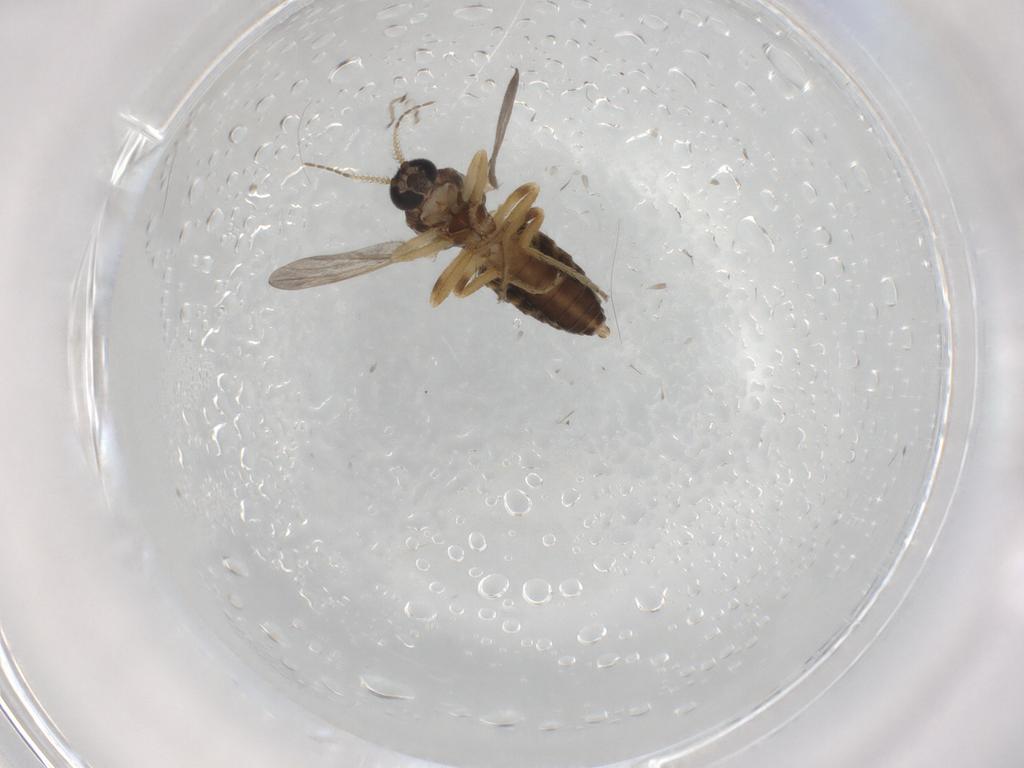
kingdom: Animalia
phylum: Arthropoda
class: Insecta
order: Diptera
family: Ceratopogonidae
